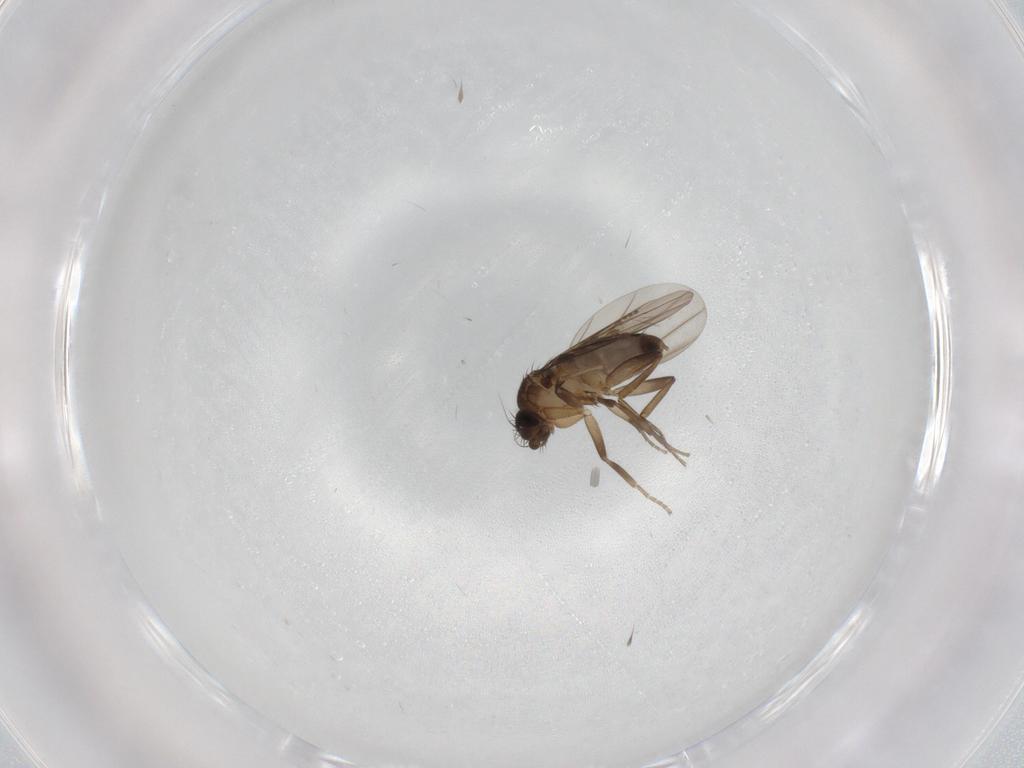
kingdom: Animalia
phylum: Arthropoda
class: Insecta
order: Diptera
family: Phoridae
